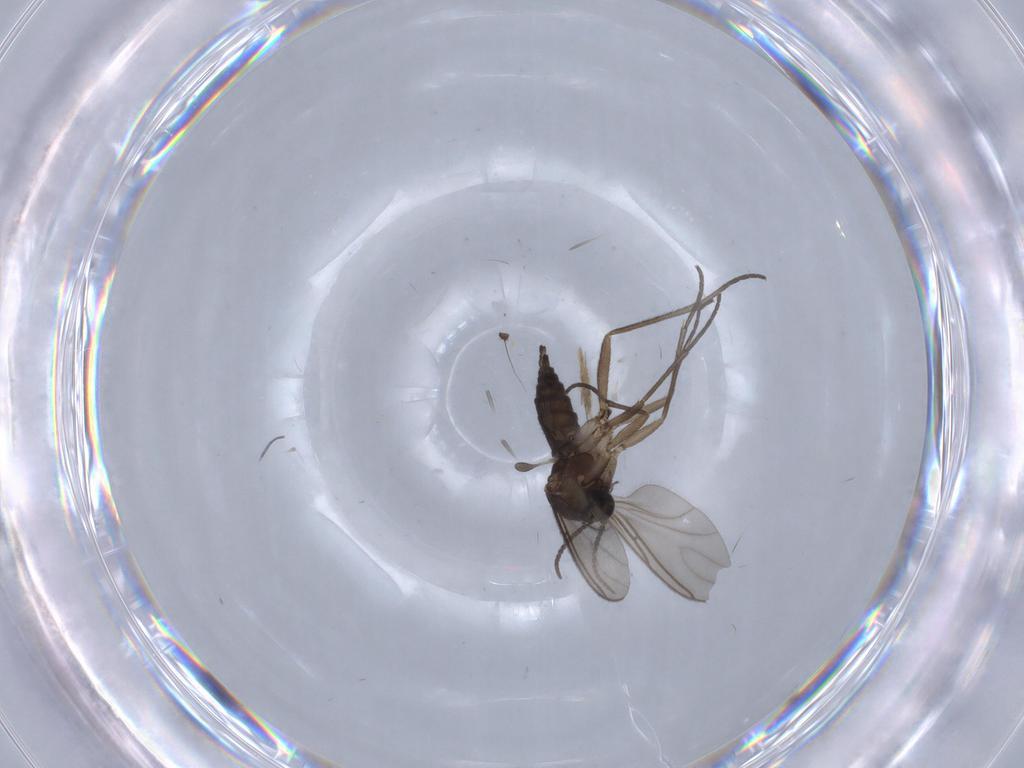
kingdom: Animalia
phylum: Arthropoda
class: Insecta
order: Diptera
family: Sciaridae
